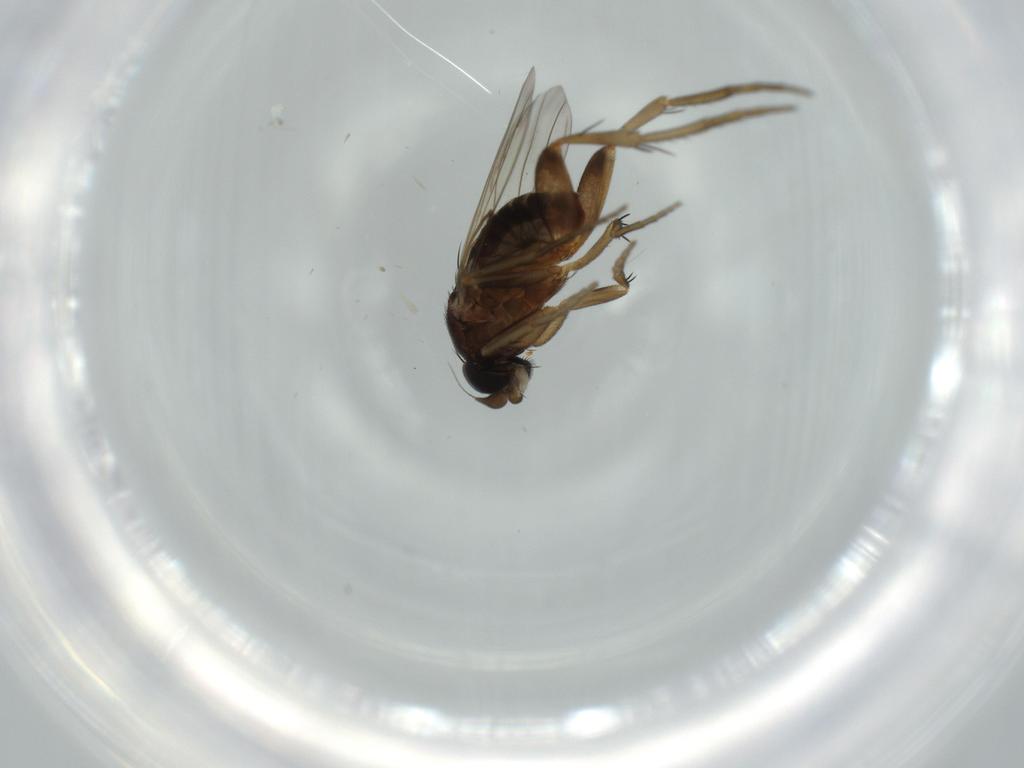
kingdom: Animalia
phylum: Arthropoda
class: Insecta
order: Diptera
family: Phoridae
